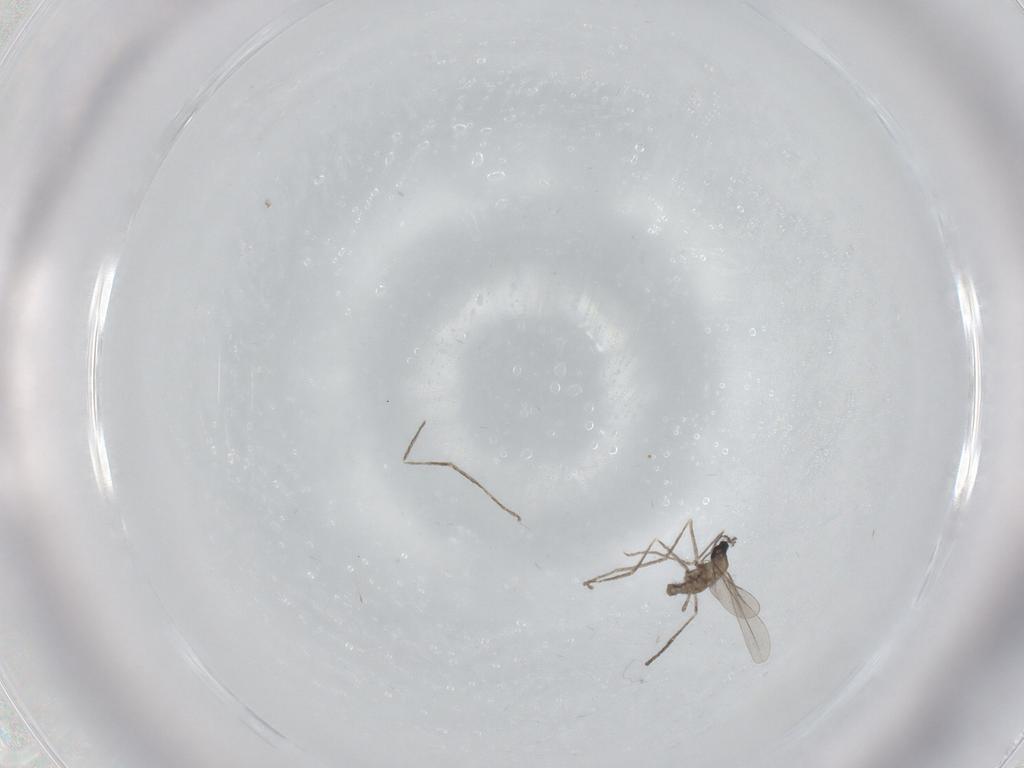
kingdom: Animalia
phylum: Arthropoda
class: Insecta
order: Diptera
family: Cecidomyiidae
